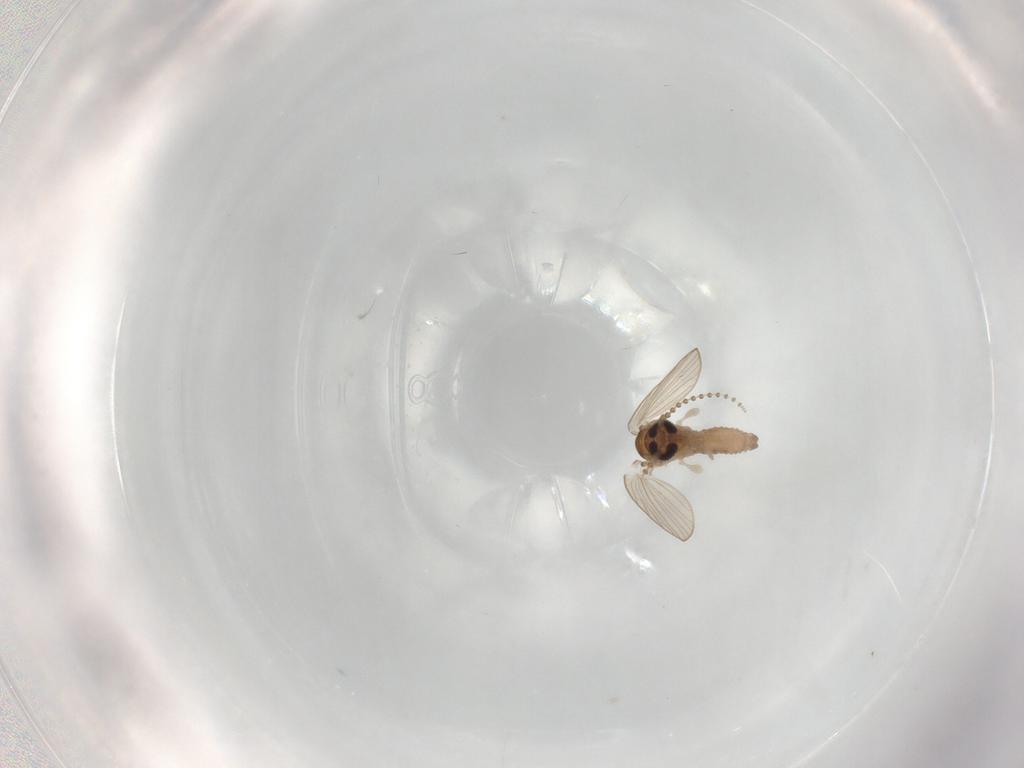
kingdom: Animalia
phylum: Arthropoda
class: Insecta
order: Diptera
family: Psychodidae
